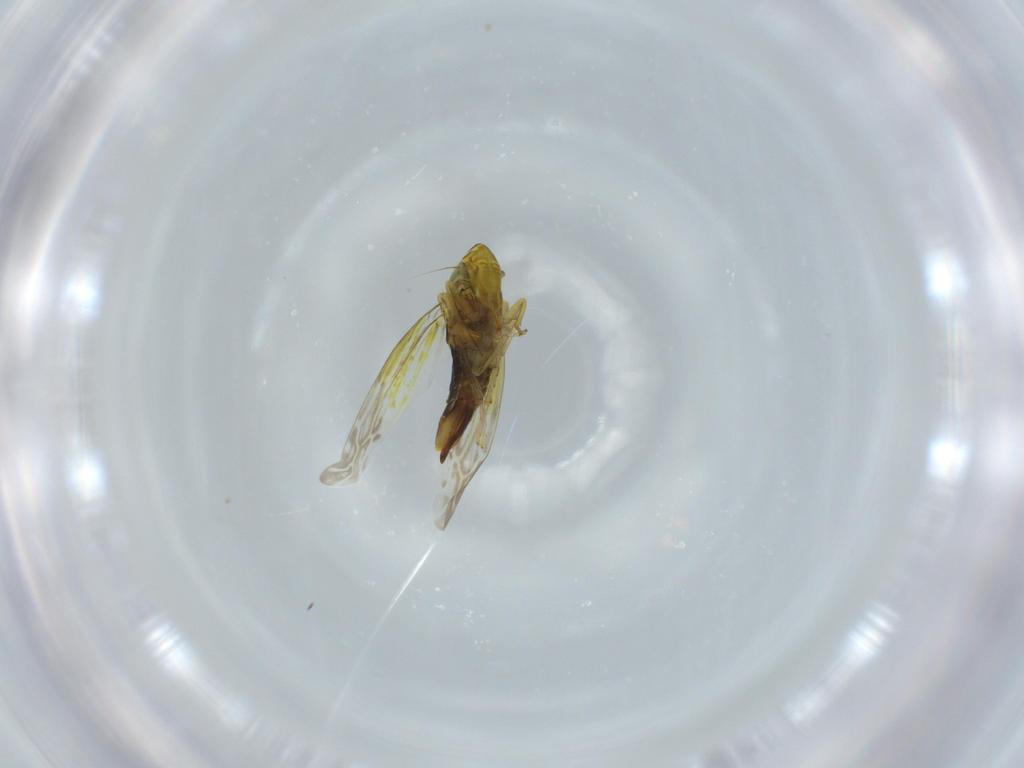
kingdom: Animalia
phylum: Arthropoda
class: Insecta
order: Hemiptera
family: Cicadellidae
